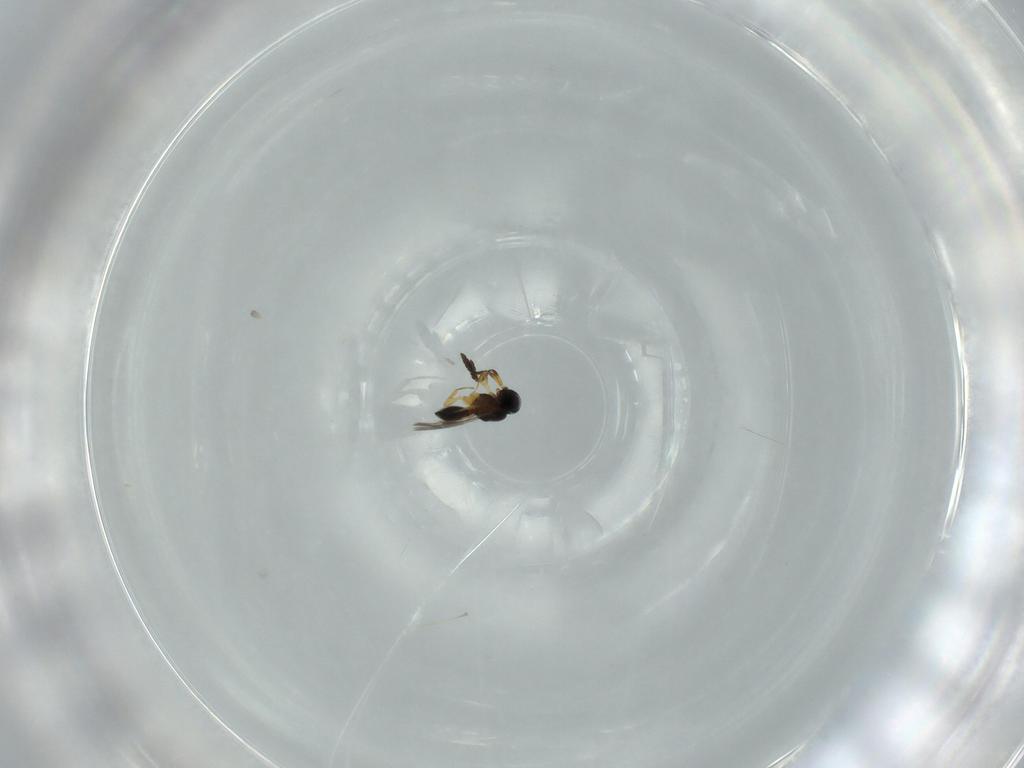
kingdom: Animalia
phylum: Arthropoda
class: Insecta
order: Hymenoptera
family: Scelionidae
